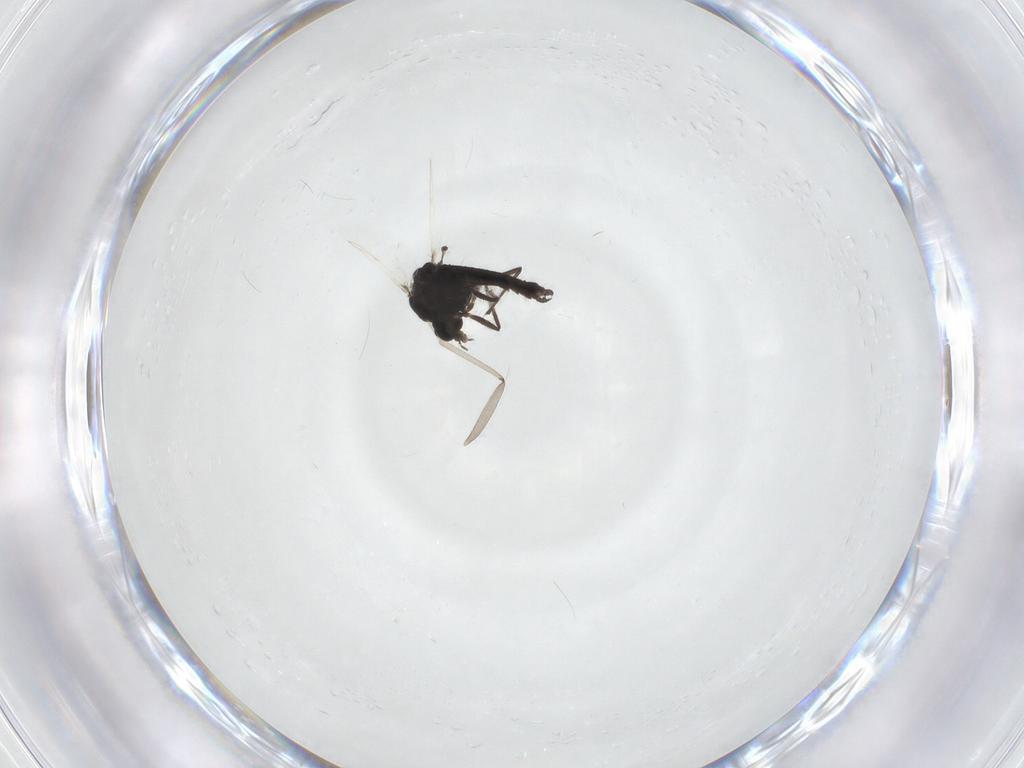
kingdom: Animalia
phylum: Arthropoda
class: Insecta
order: Diptera
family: Chironomidae
